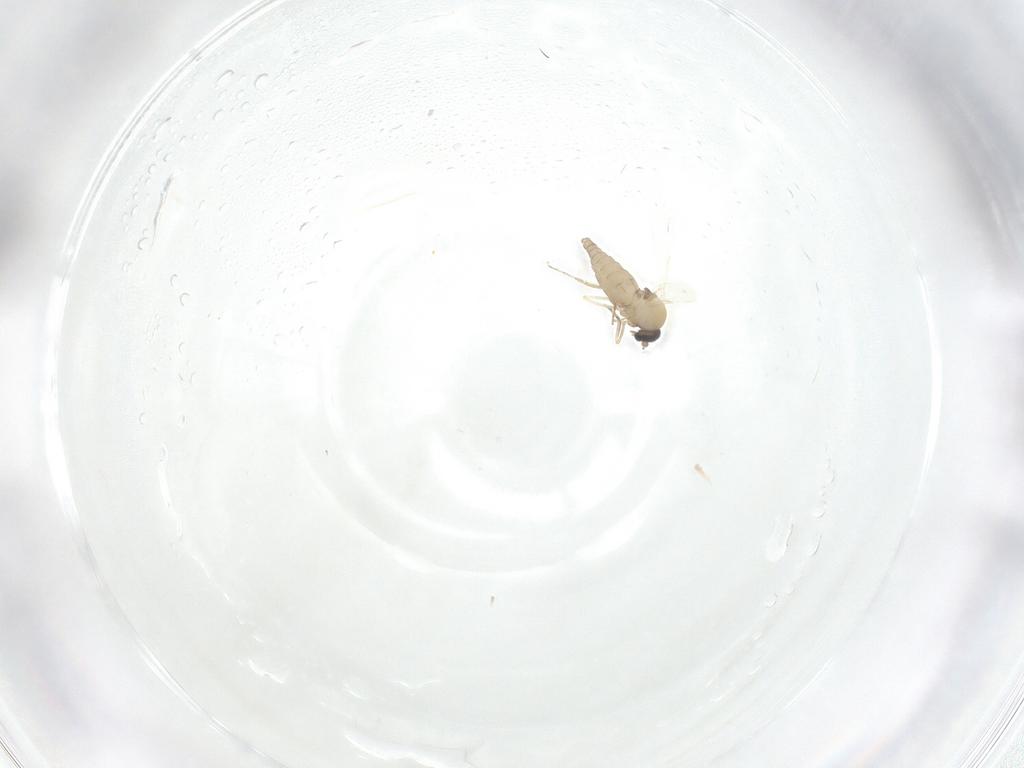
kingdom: Animalia
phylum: Arthropoda
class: Insecta
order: Diptera
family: Ceratopogonidae
